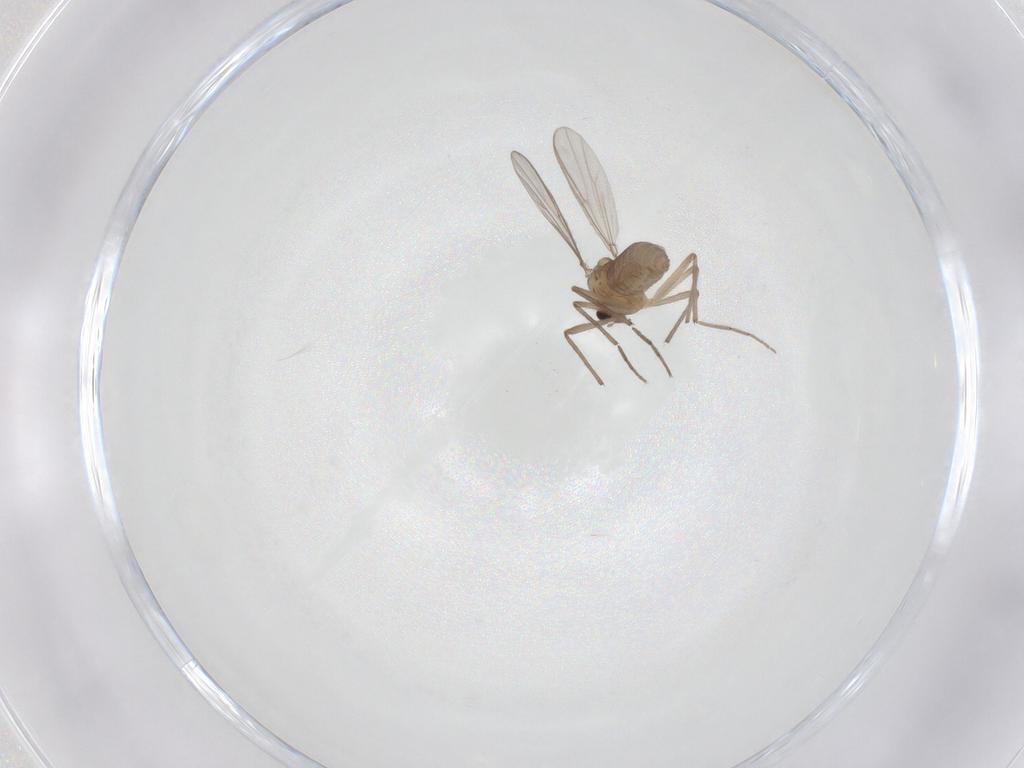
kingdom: Animalia
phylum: Arthropoda
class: Insecta
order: Diptera
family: Chironomidae
